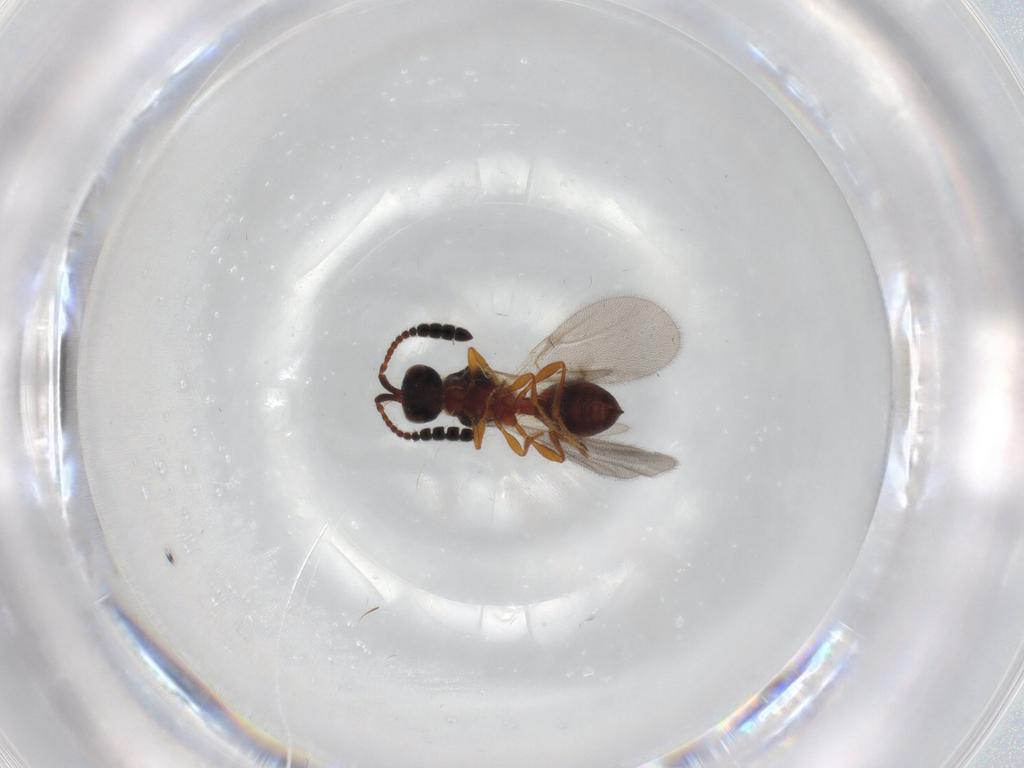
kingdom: Animalia
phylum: Arthropoda
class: Insecta
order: Hymenoptera
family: Diapriidae
